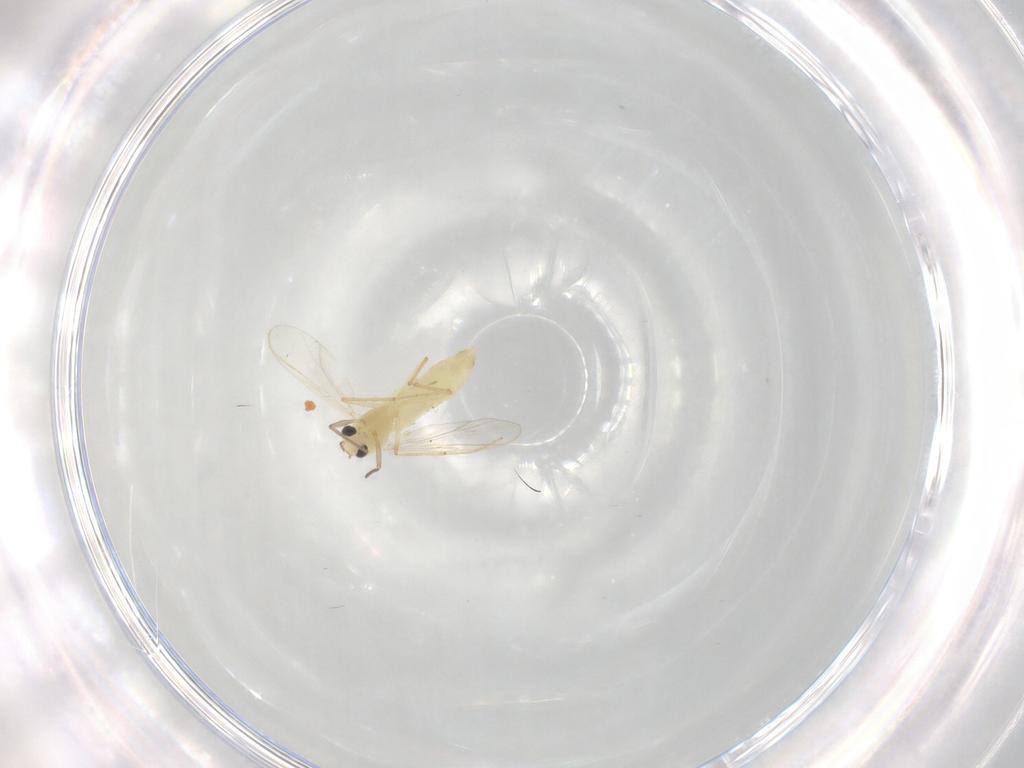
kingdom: Animalia
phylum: Arthropoda
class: Insecta
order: Diptera
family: Chironomidae
